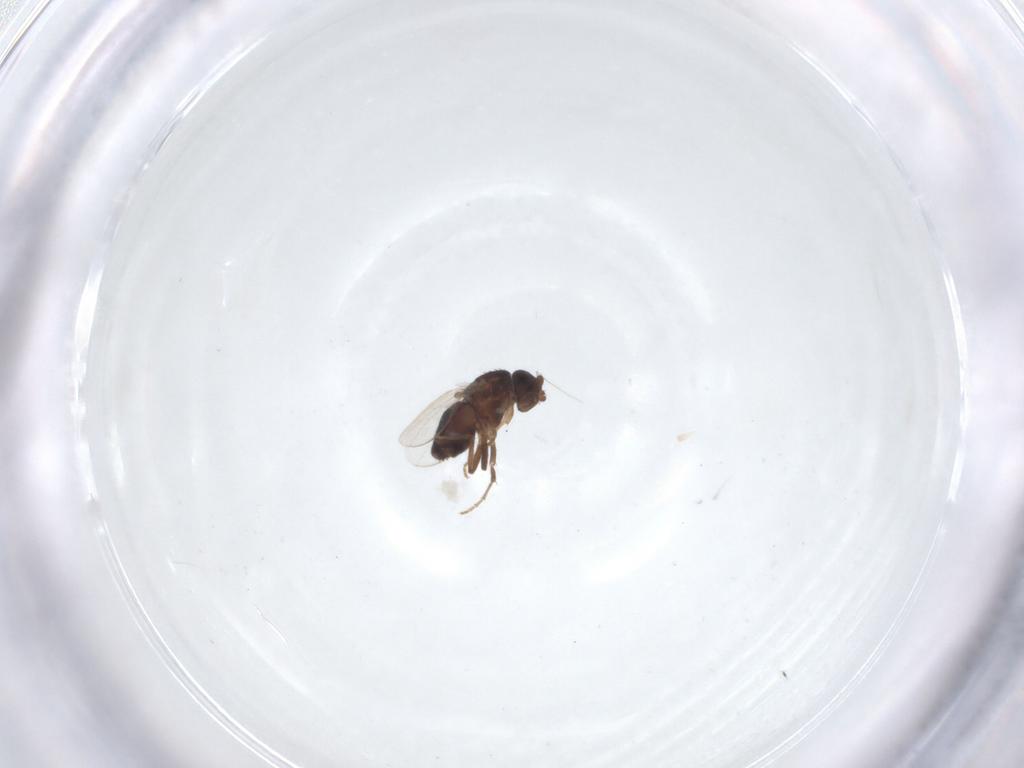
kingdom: Animalia
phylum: Arthropoda
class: Insecta
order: Diptera
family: Sphaeroceridae
